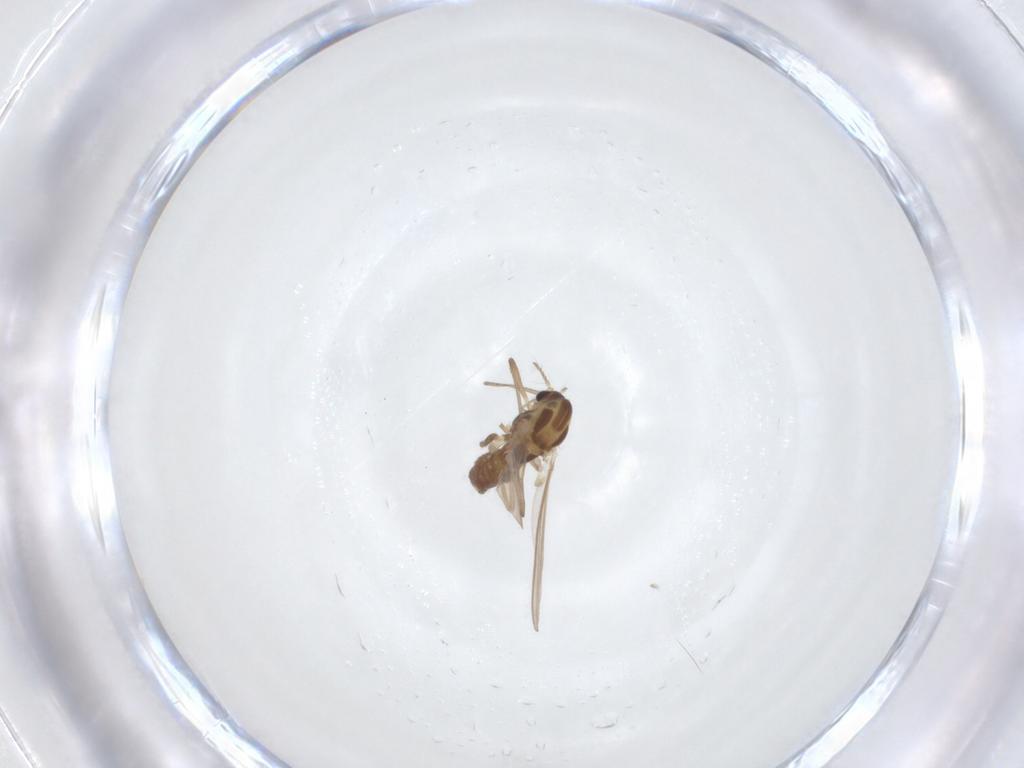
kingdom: Animalia
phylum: Arthropoda
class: Insecta
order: Diptera
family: Chironomidae
